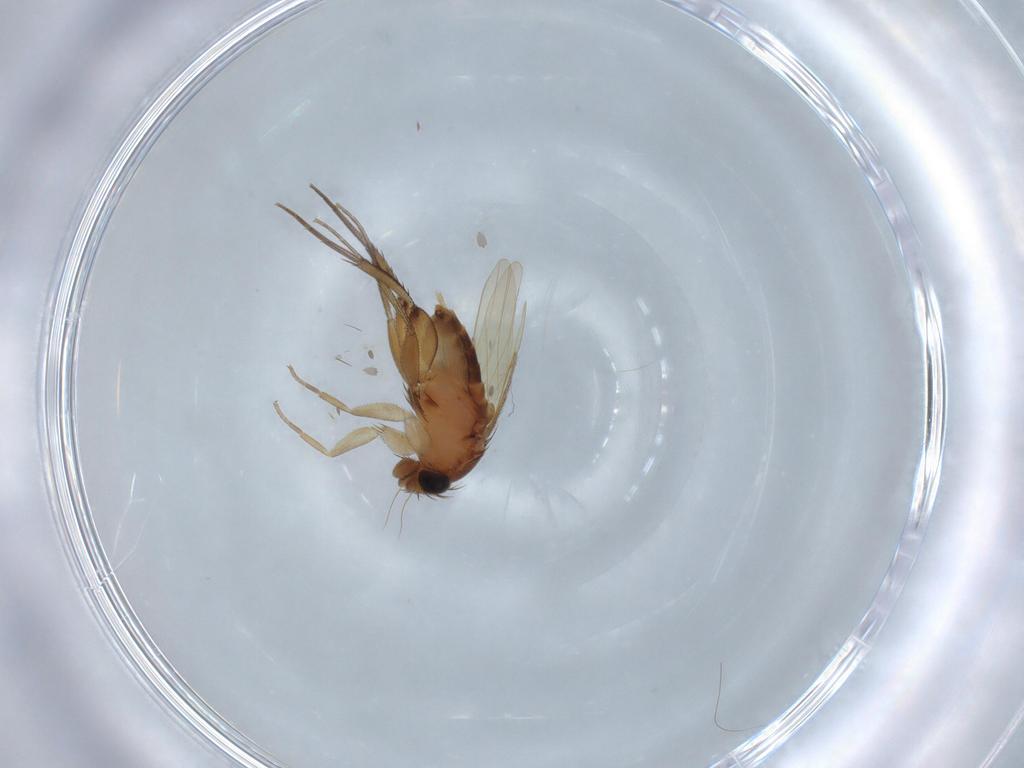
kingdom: Animalia
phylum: Arthropoda
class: Insecta
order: Diptera
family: Phoridae
